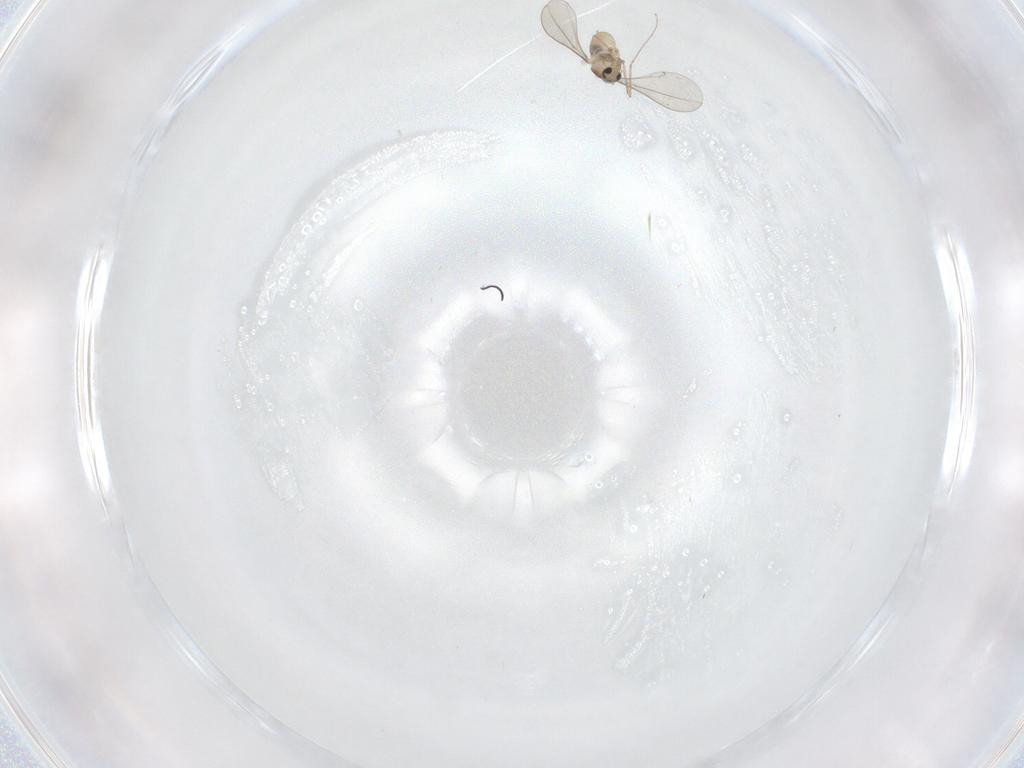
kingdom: Animalia
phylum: Arthropoda
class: Insecta
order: Diptera
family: Cecidomyiidae
